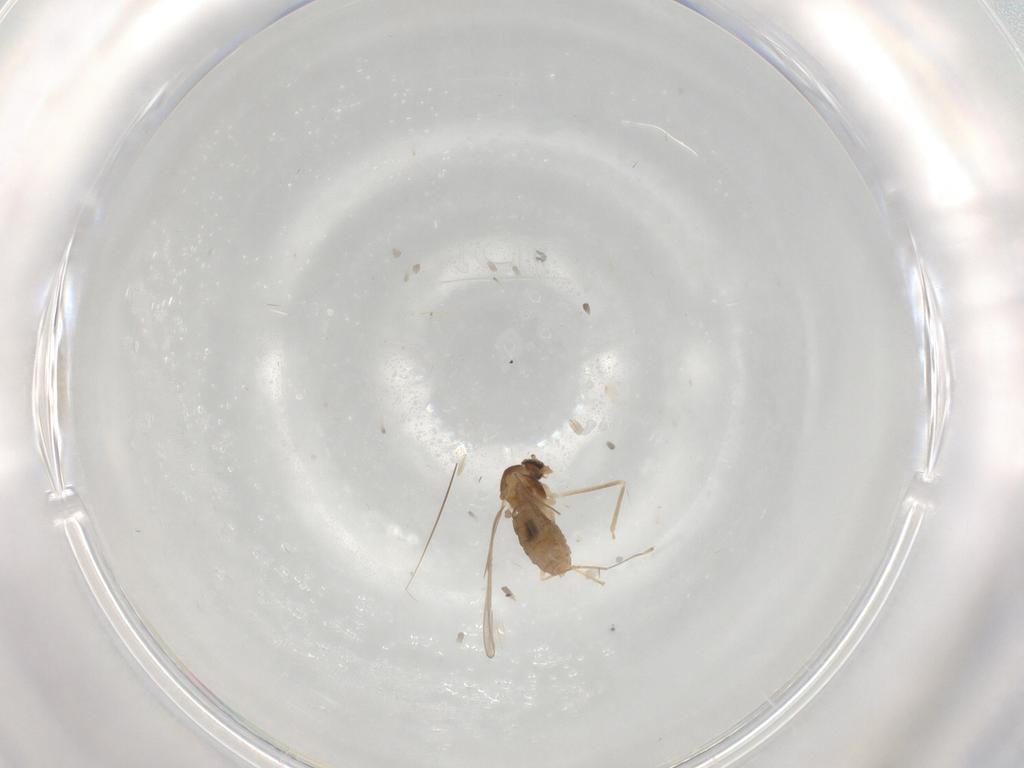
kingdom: Animalia
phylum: Arthropoda
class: Insecta
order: Diptera
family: Cecidomyiidae
